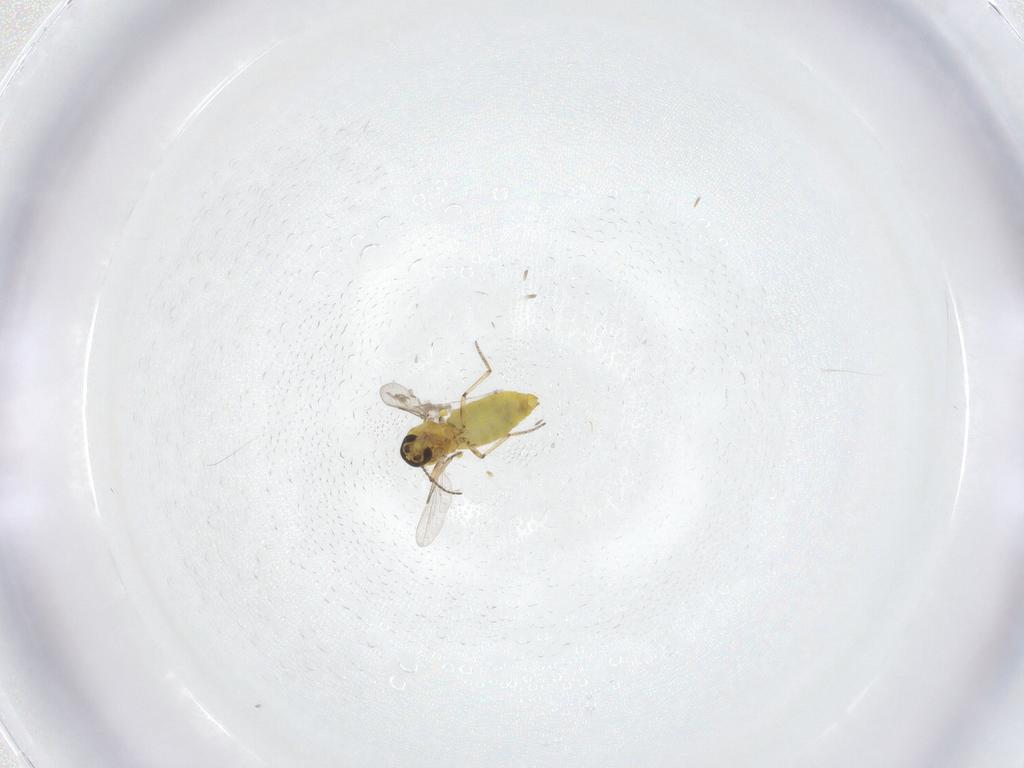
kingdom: Animalia
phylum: Arthropoda
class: Insecta
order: Diptera
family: Ceratopogonidae
